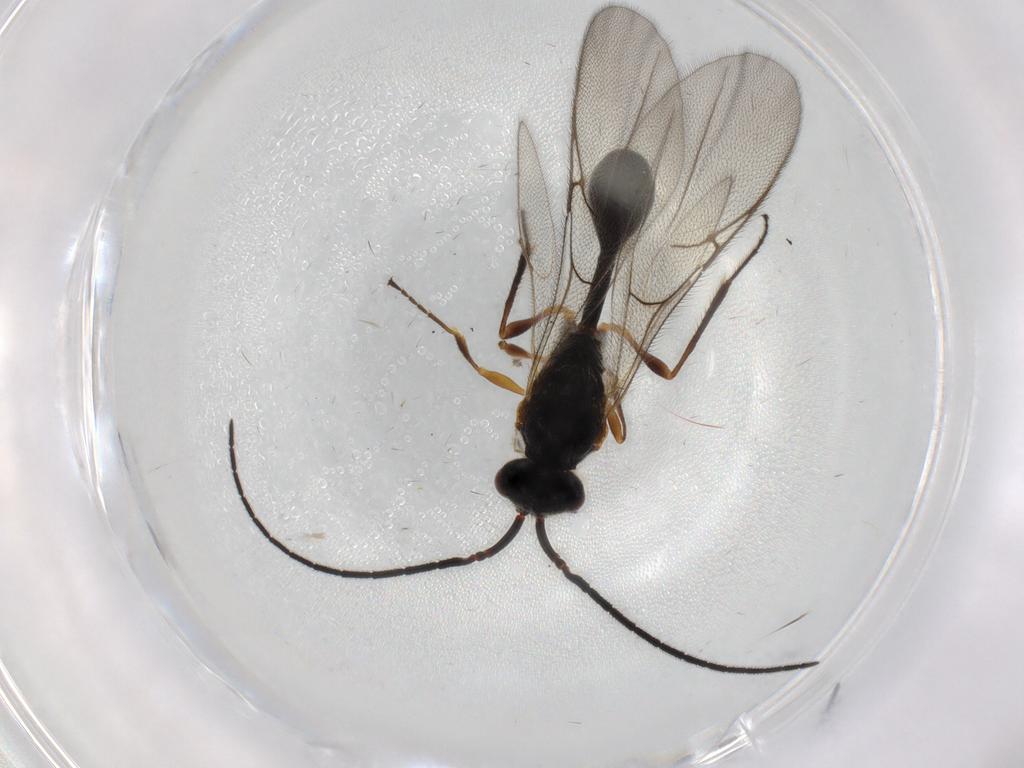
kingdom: Animalia
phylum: Arthropoda
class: Insecta
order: Hymenoptera
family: Diapriidae
